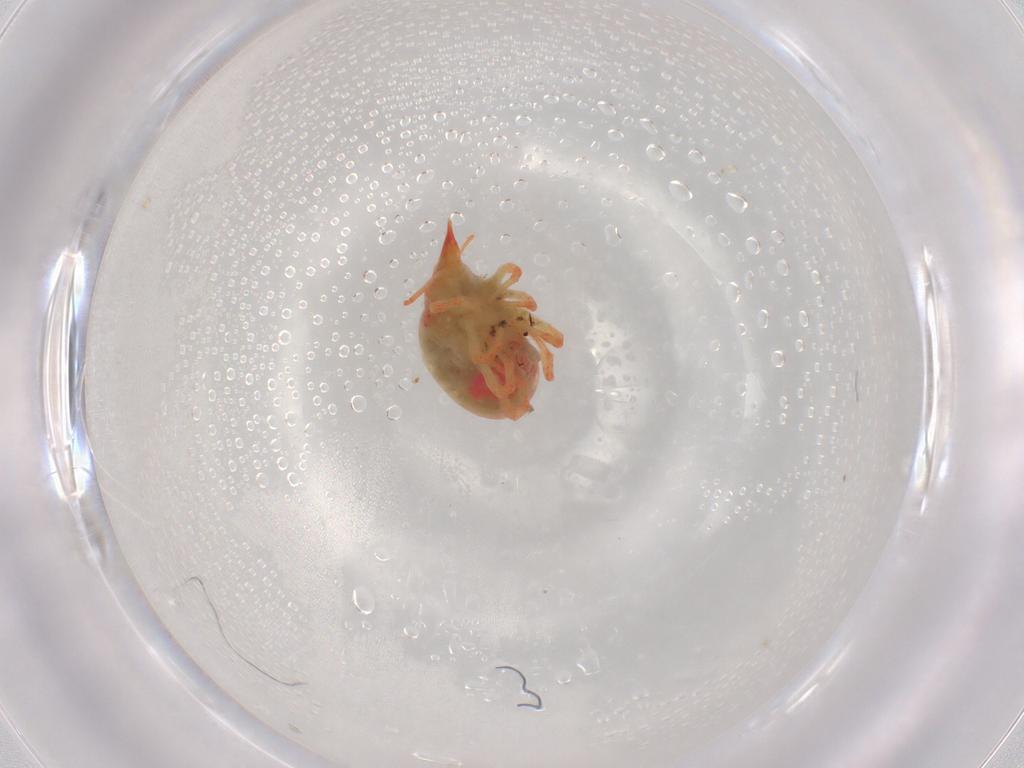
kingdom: Animalia
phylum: Arthropoda
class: Arachnida
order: Trombidiformes
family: Bdellidae
